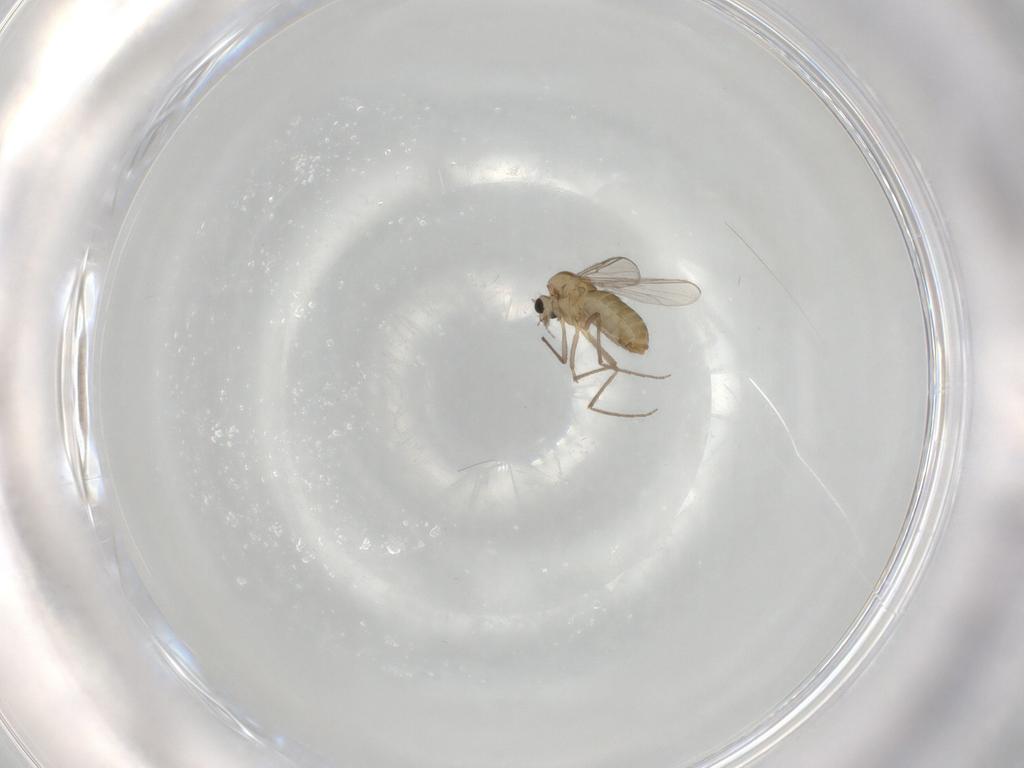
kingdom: Animalia
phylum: Arthropoda
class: Insecta
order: Diptera
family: Chironomidae
